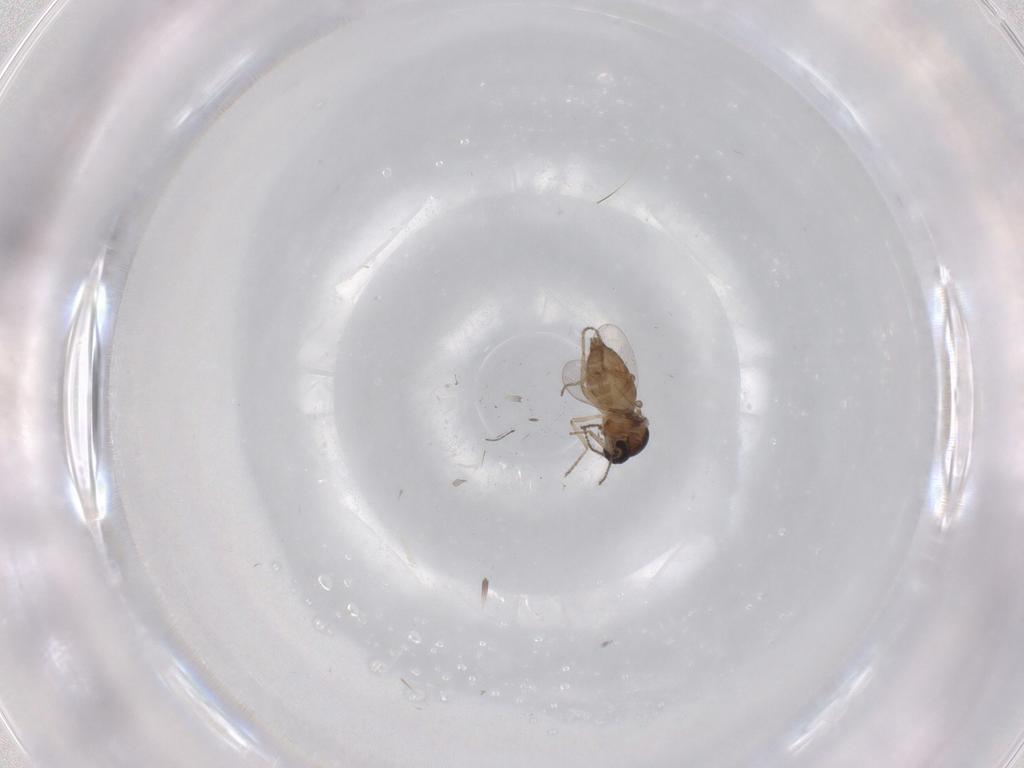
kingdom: Animalia
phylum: Arthropoda
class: Insecta
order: Diptera
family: Ceratopogonidae
